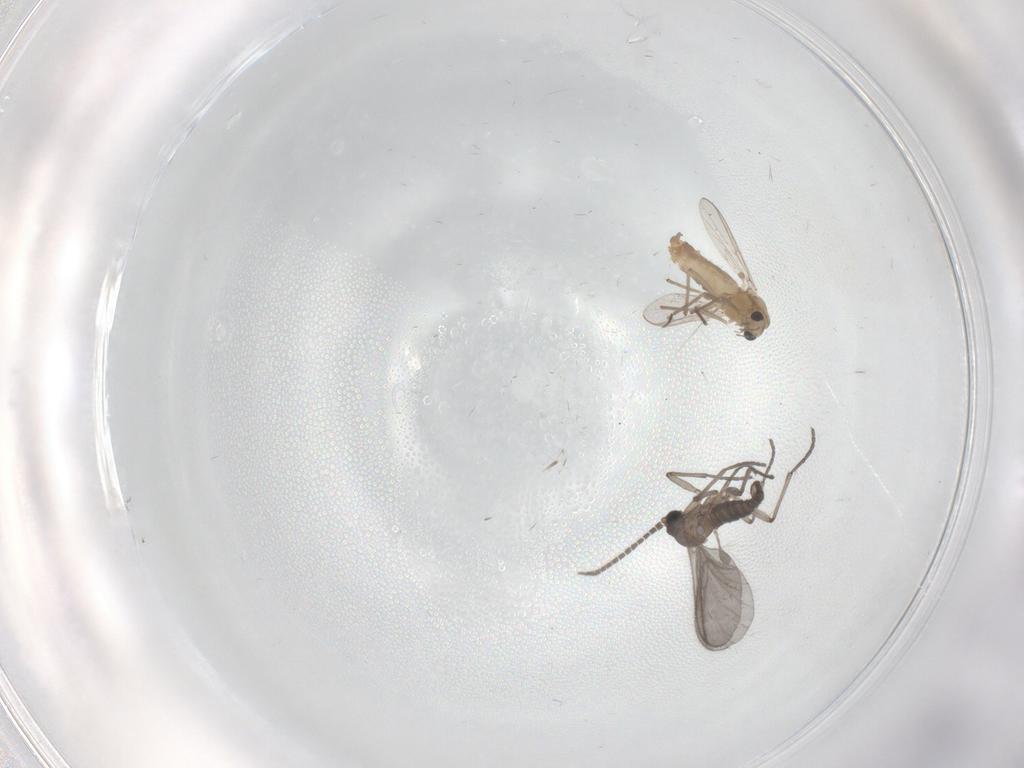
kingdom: Animalia
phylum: Arthropoda
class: Insecta
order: Diptera
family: Sciaridae
